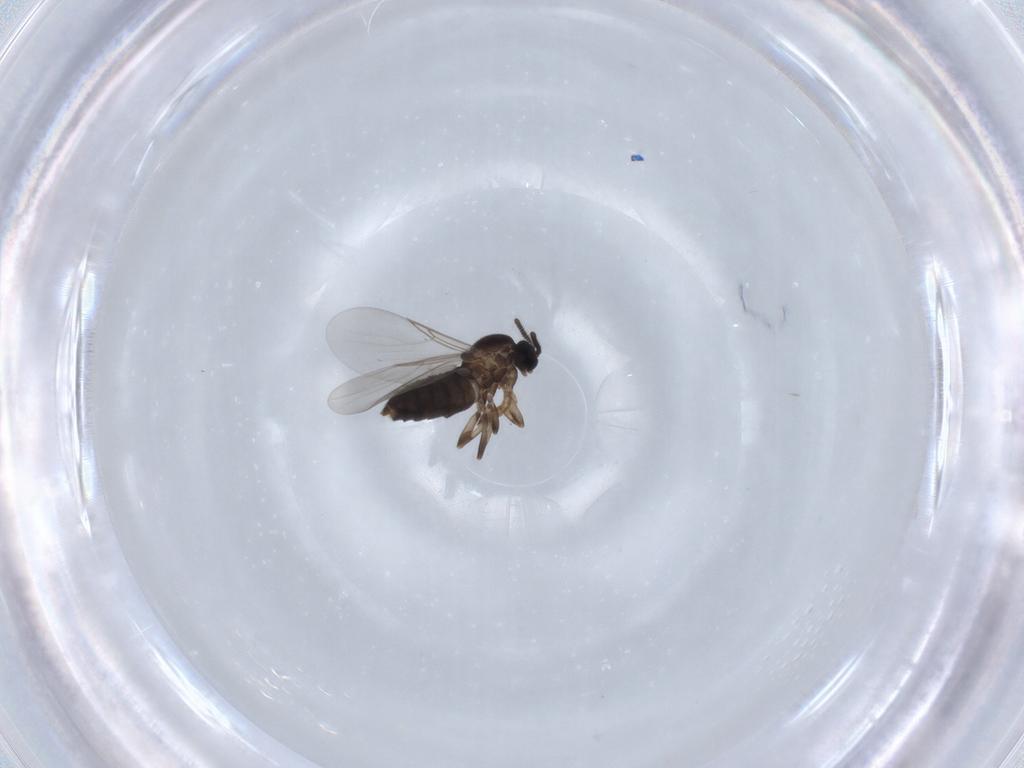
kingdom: Animalia
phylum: Arthropoda
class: Insecta
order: Diptera
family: Scatopsidae
